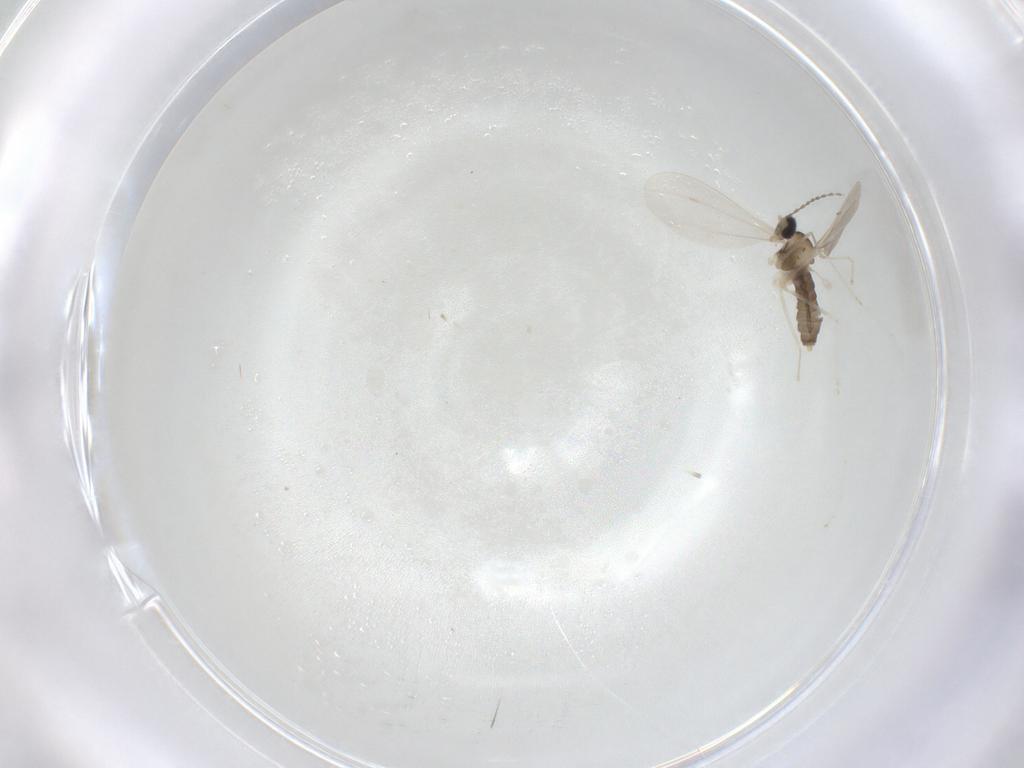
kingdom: Animalia
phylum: Arthropoda
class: Insecta
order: Diptera
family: Cecidomyiidae
